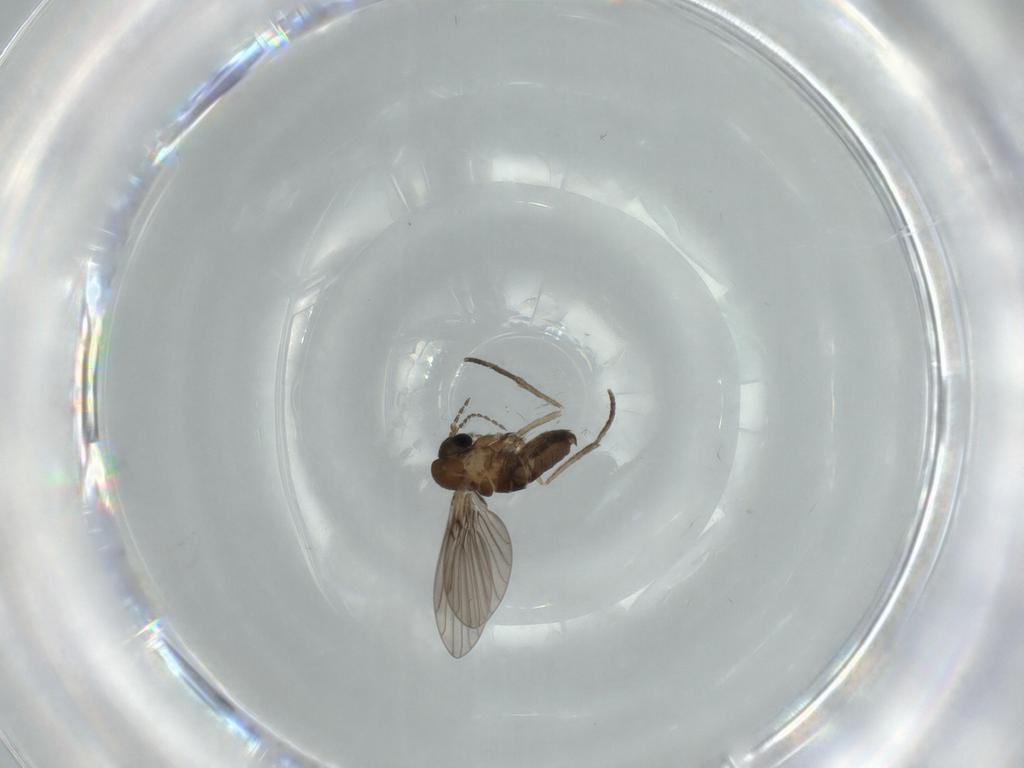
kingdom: Animalia
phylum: Arthropoda
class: Insecta
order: Diptera
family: Psychodidae
